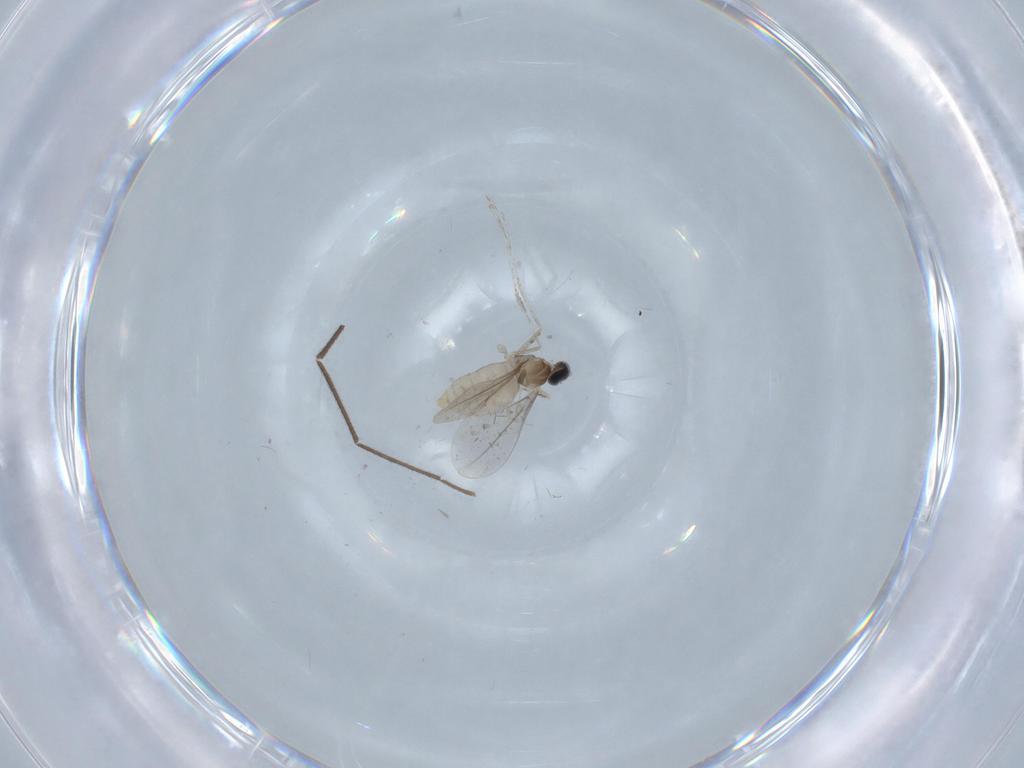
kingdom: Animalia
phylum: Arthropoda
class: Insecta
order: Diptera
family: Cecidomyiidae
